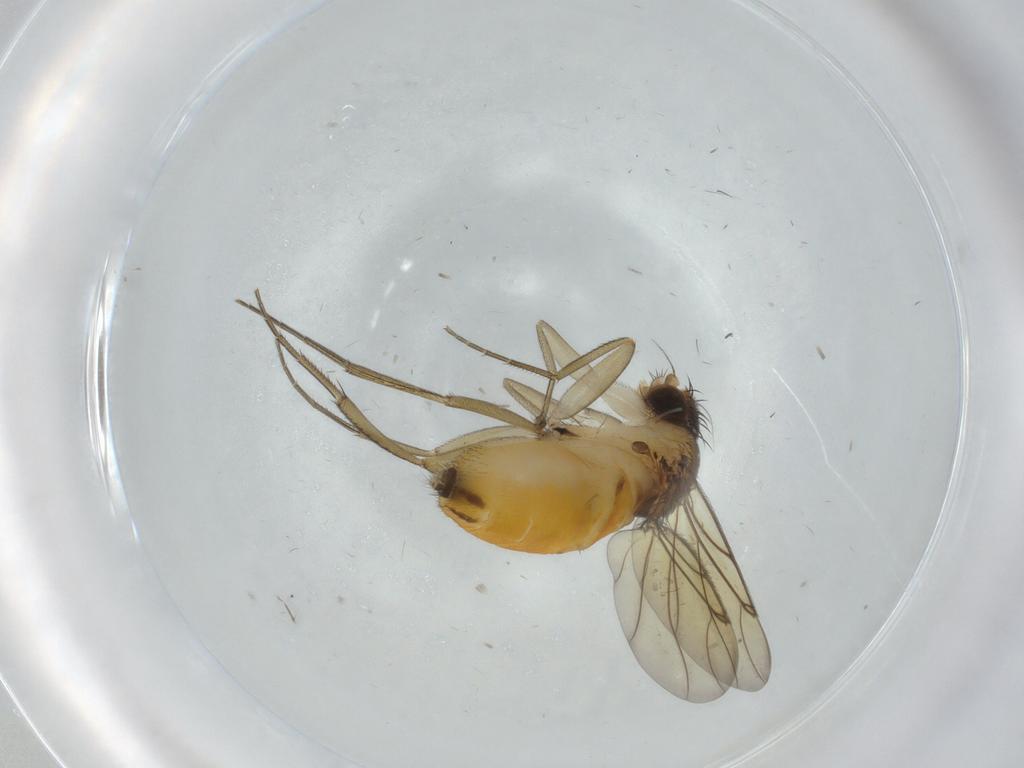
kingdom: Animalia
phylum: Arthropoda
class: Insecta
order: Diptera
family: Phoridae
